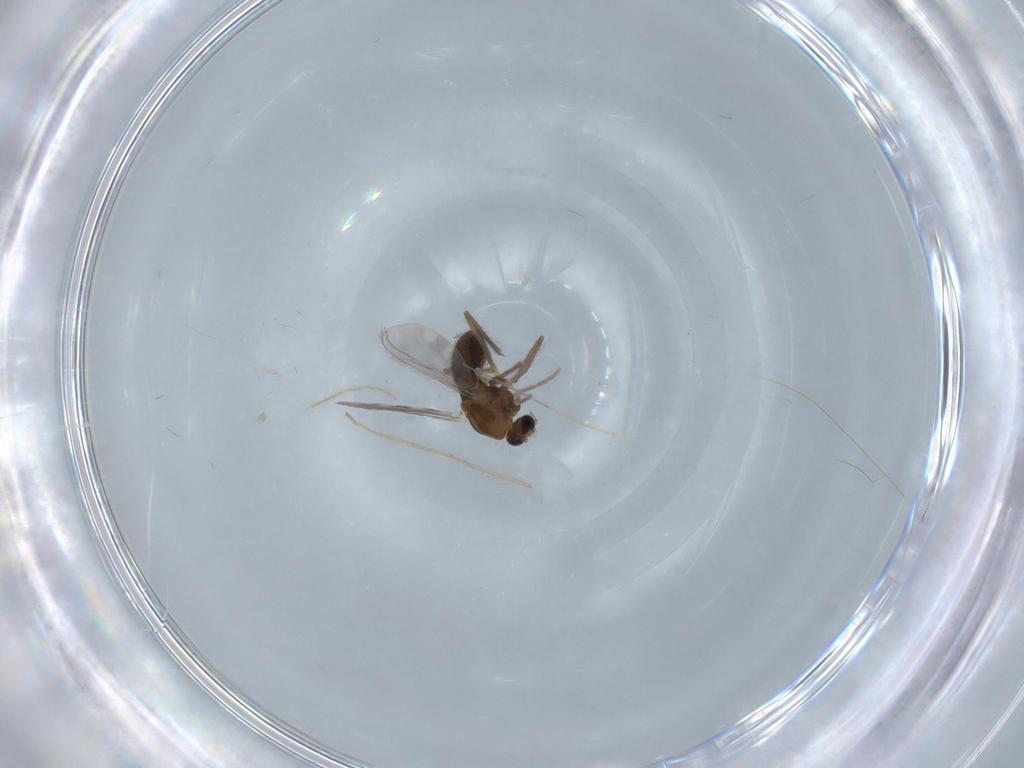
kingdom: Animalia
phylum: Arthropoda
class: Insecta
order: Diptera
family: Chironomidae
